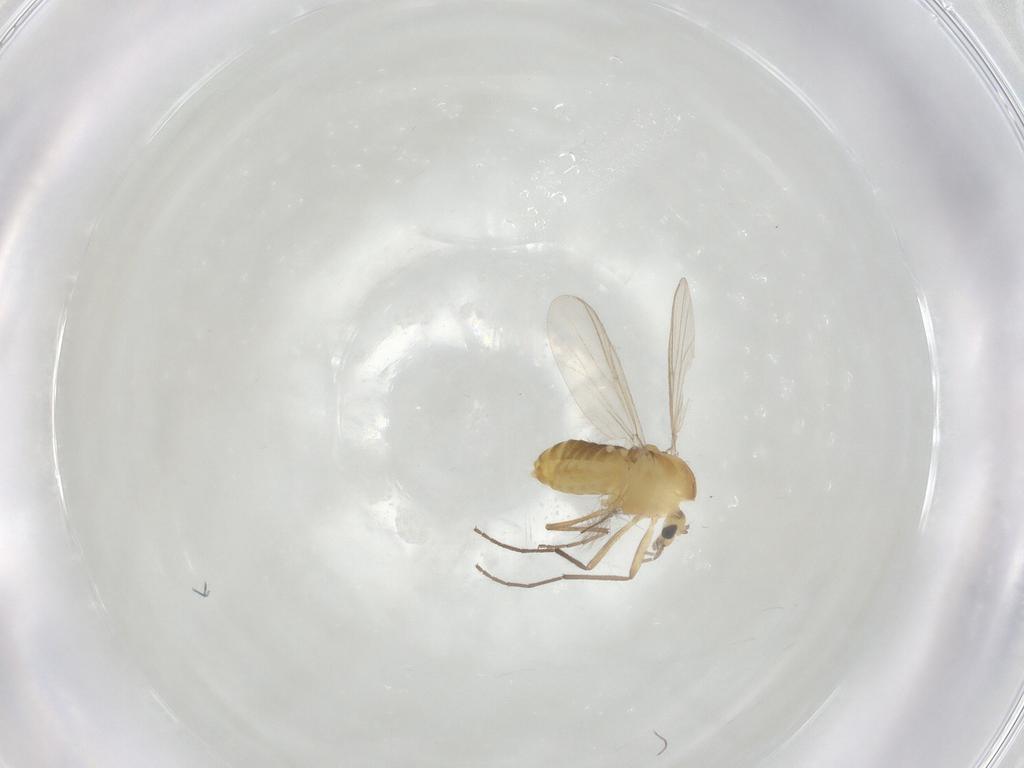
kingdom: Animalia
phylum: Arthropoda
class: Insecta
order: Diptera
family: Chironomidae
